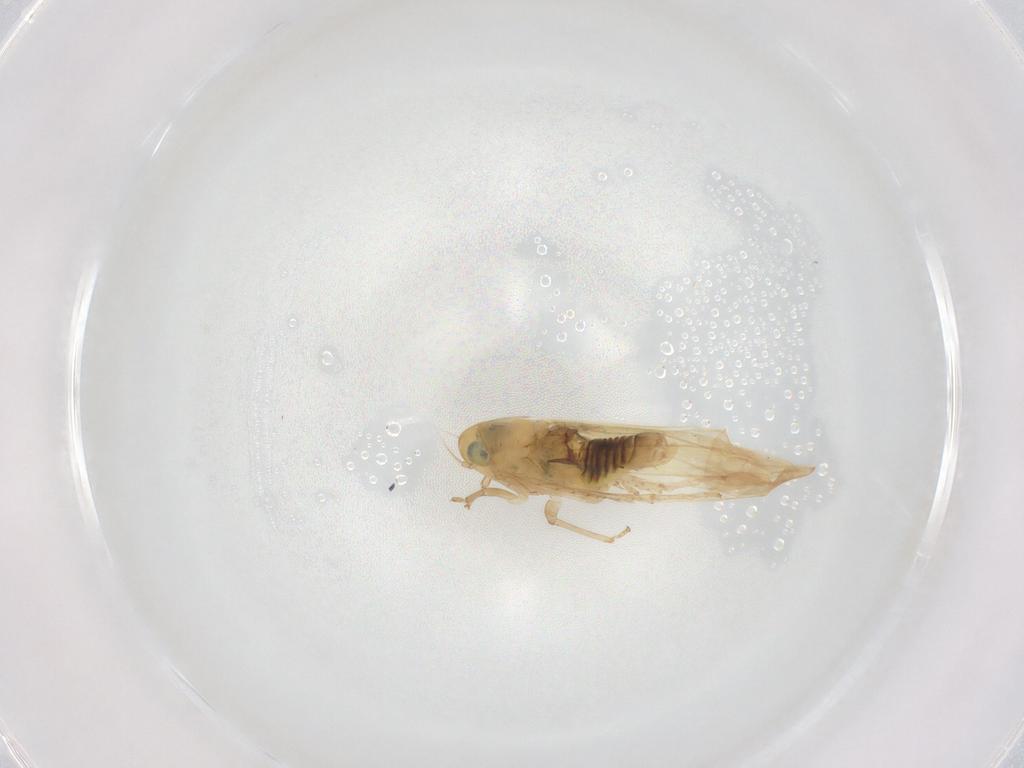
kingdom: Animalia
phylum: Arthropoda
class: Insecta
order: Hemiptera
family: Cicadellidae
